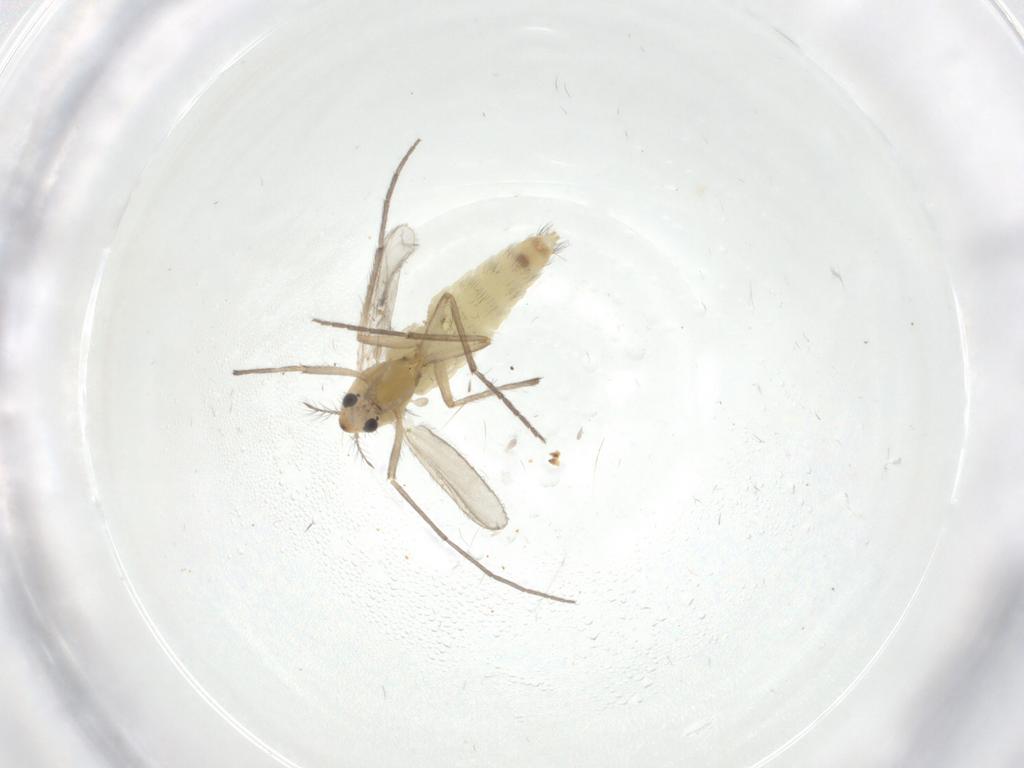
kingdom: Animalia
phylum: Arthropoda
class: Insecta
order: Diptera
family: Chironomidae
